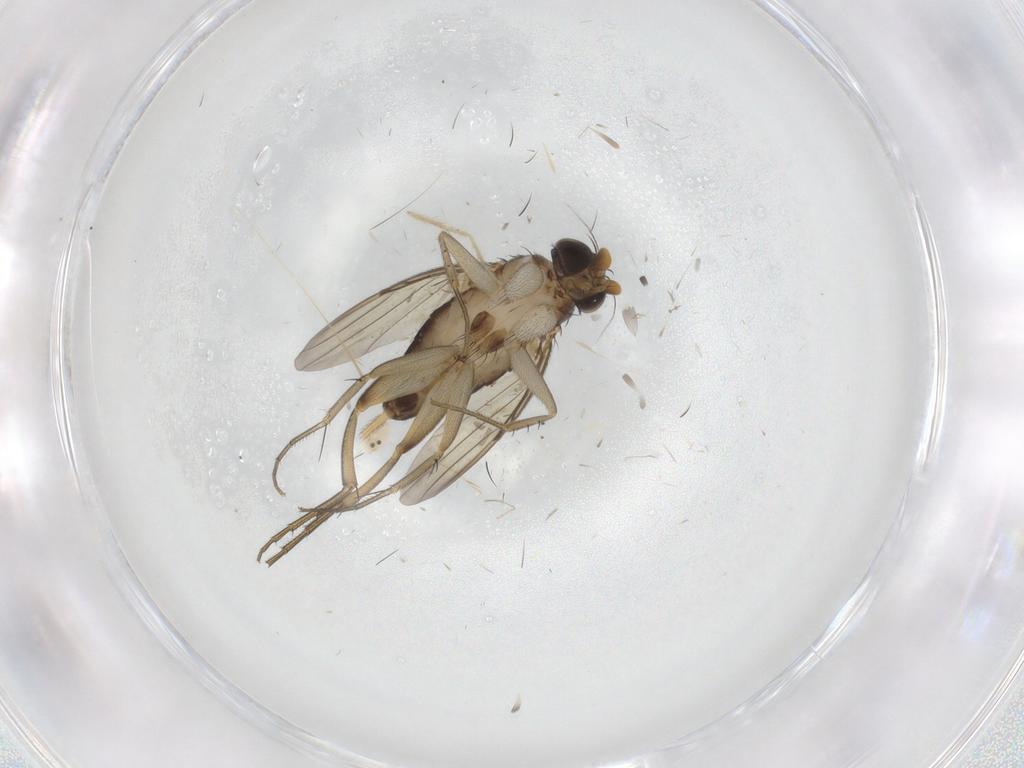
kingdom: Animalia
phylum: Arthropoda
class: Insecta
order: Diptera
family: Phoridae
